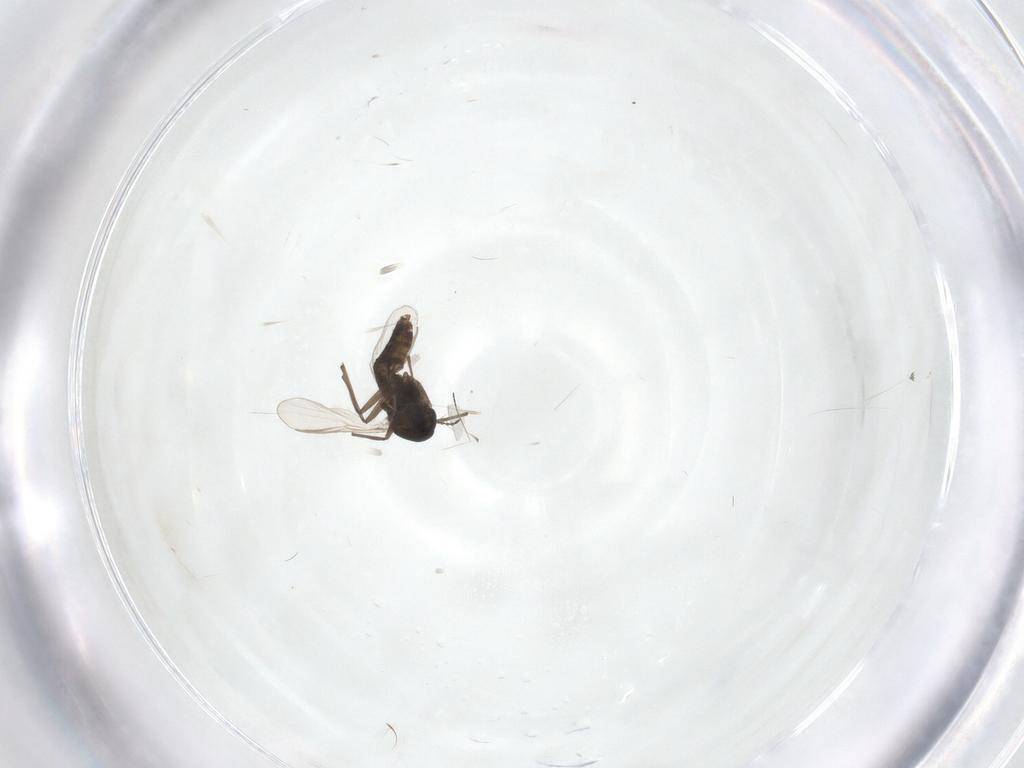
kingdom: Animalia
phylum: Arthropoda
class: Insecta
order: Diptera
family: Chironomidae
